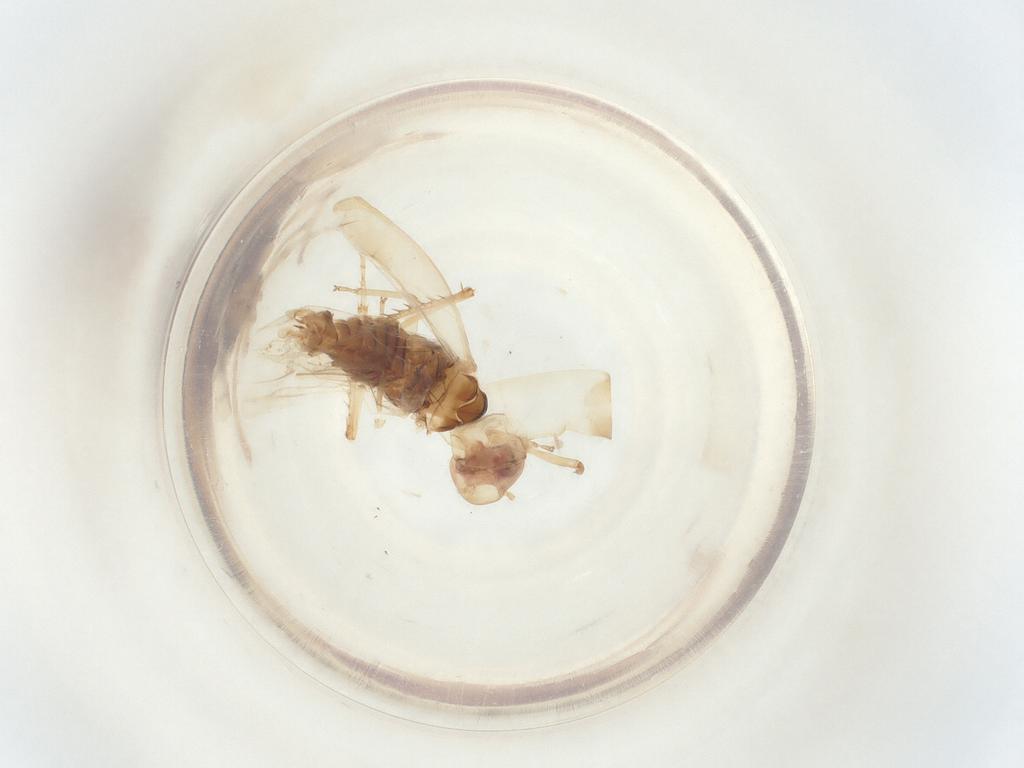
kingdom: Animalia
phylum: Arthropoda
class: Insecta
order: Hemiptera
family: Cicadellidae
